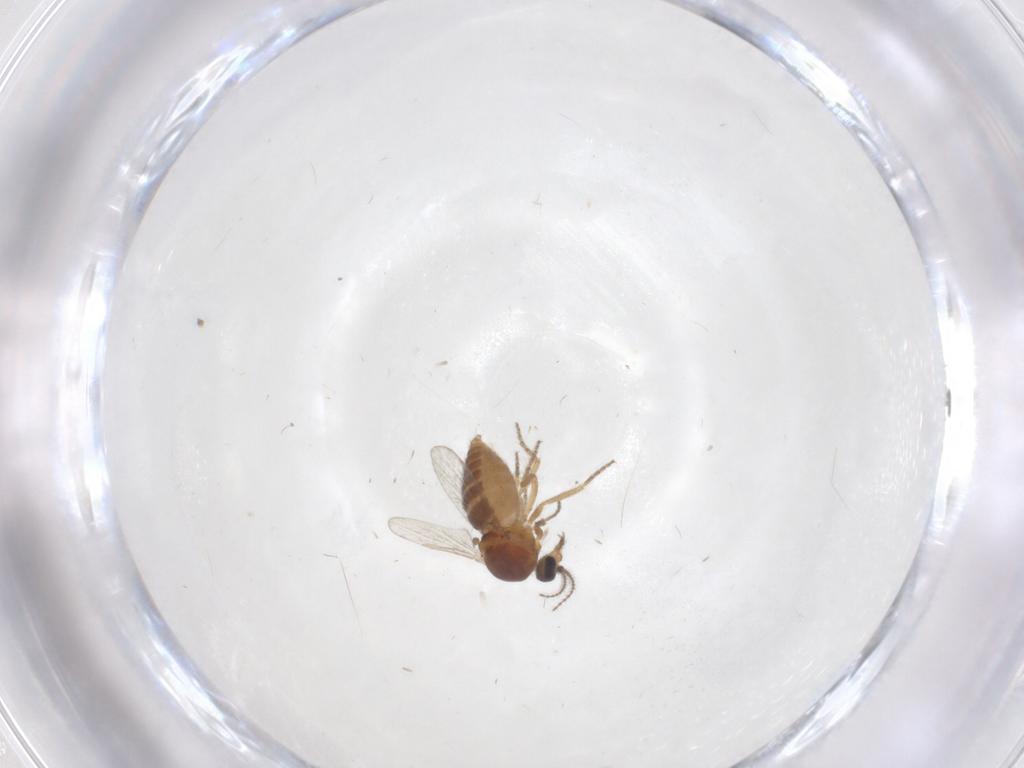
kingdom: Animalia
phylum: Arthropoda
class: Insecta
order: Diptera
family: Ceratopogonidae
